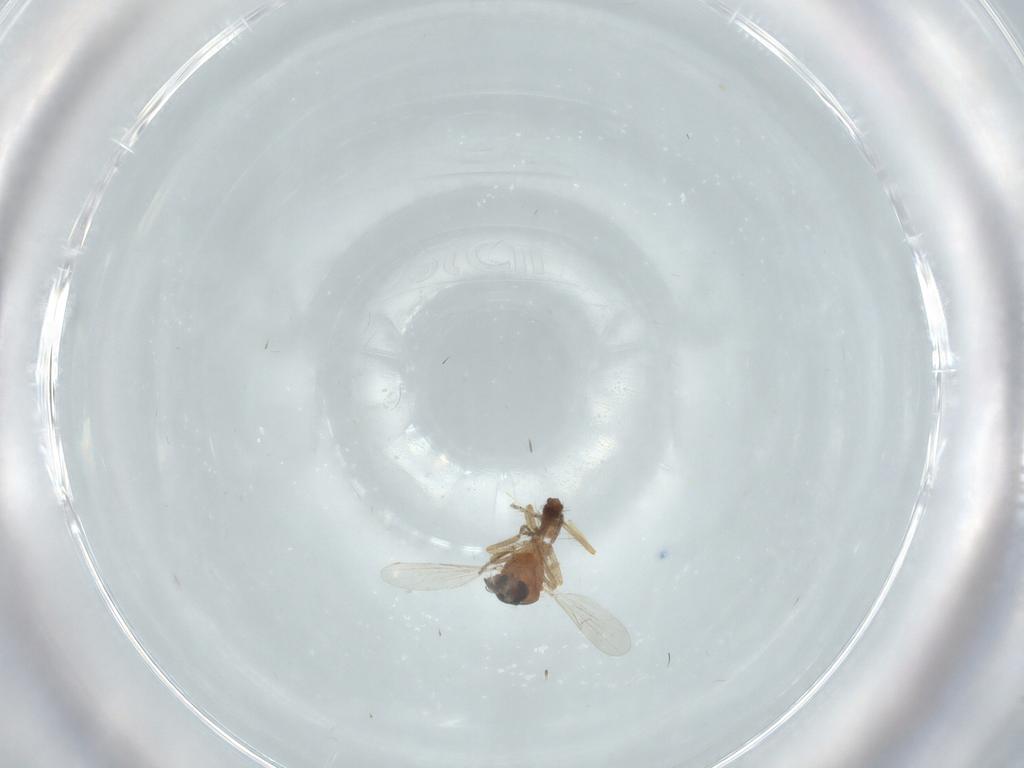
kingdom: Animalia
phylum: Arthropoda
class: Insecta
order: Diptera
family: Ceratopogonidae
